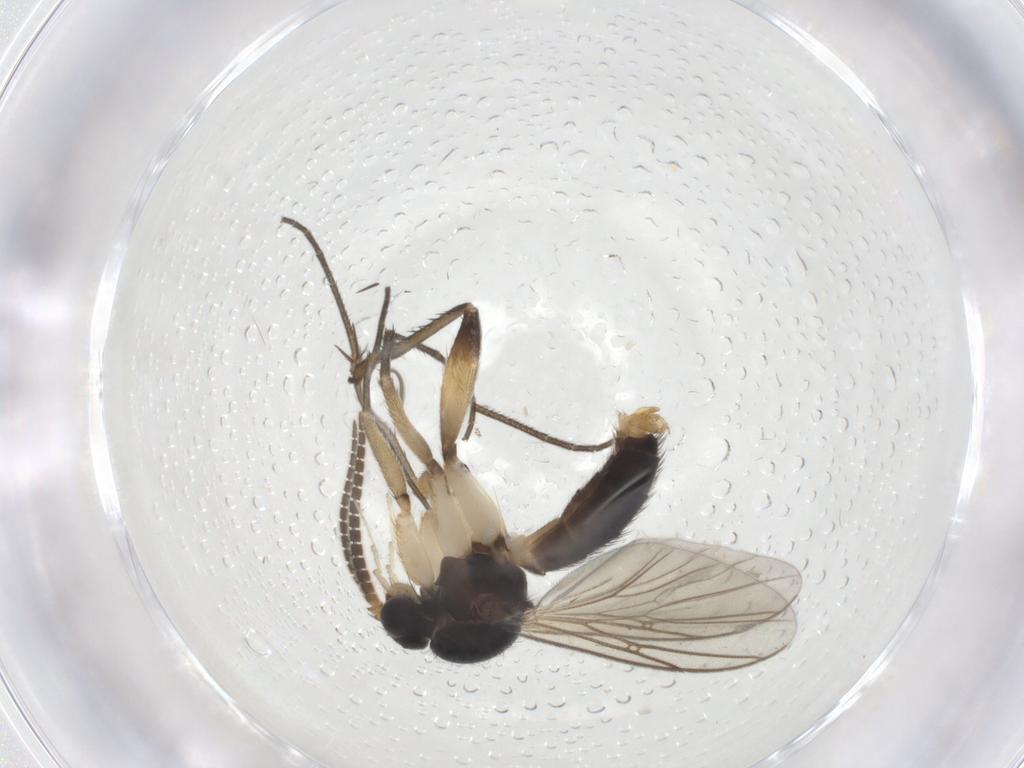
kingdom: Animalia
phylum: Arthropoda
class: Insecta
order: Diptera
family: Mycetophilidae
